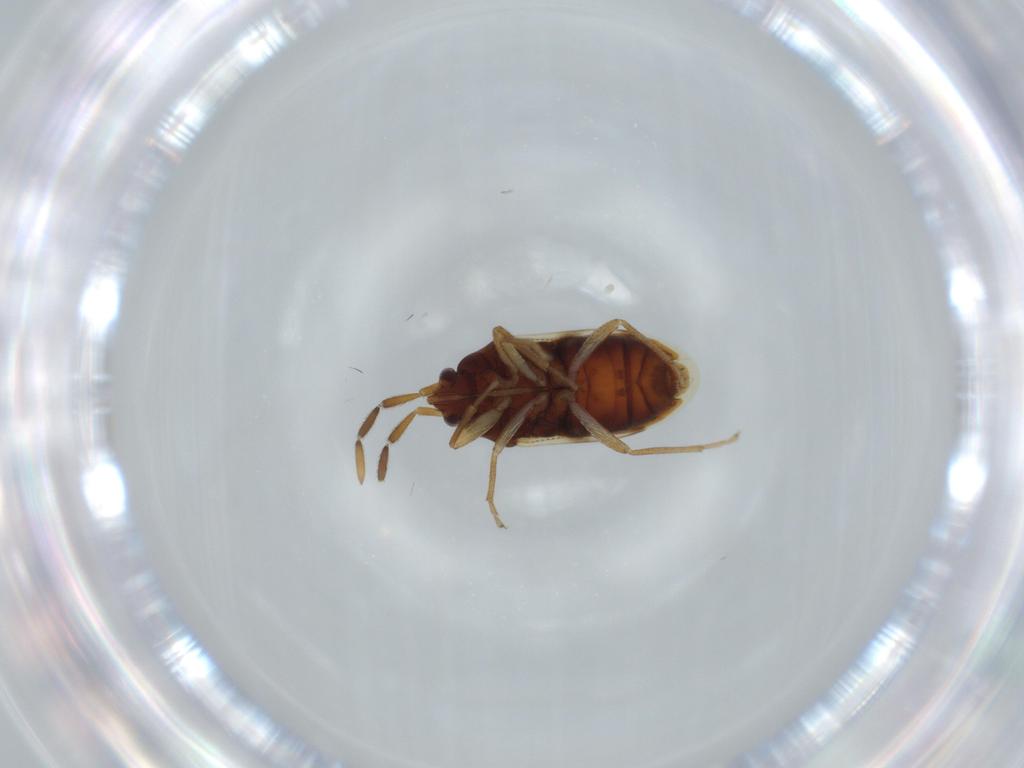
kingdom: Animalia
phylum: Arthropoda
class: Insecta
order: Hemiptera
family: Rhyparochromidae
